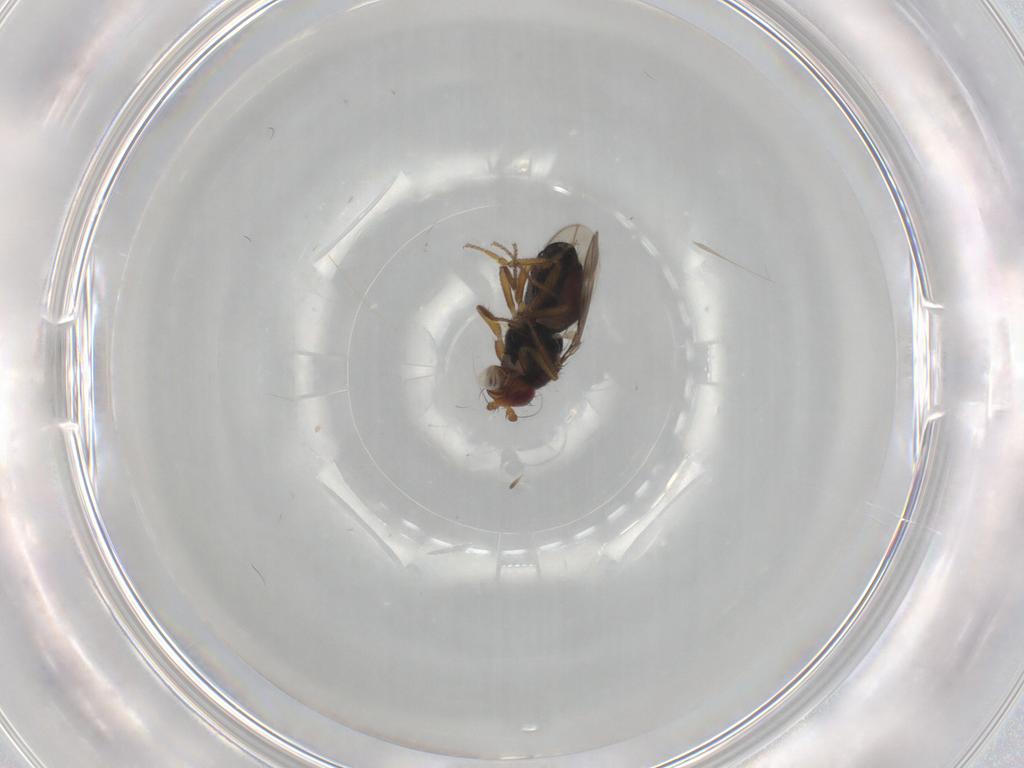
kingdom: Animalia
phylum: Arthropoda
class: Insecta
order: Diptera
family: Sphaeroceridae
